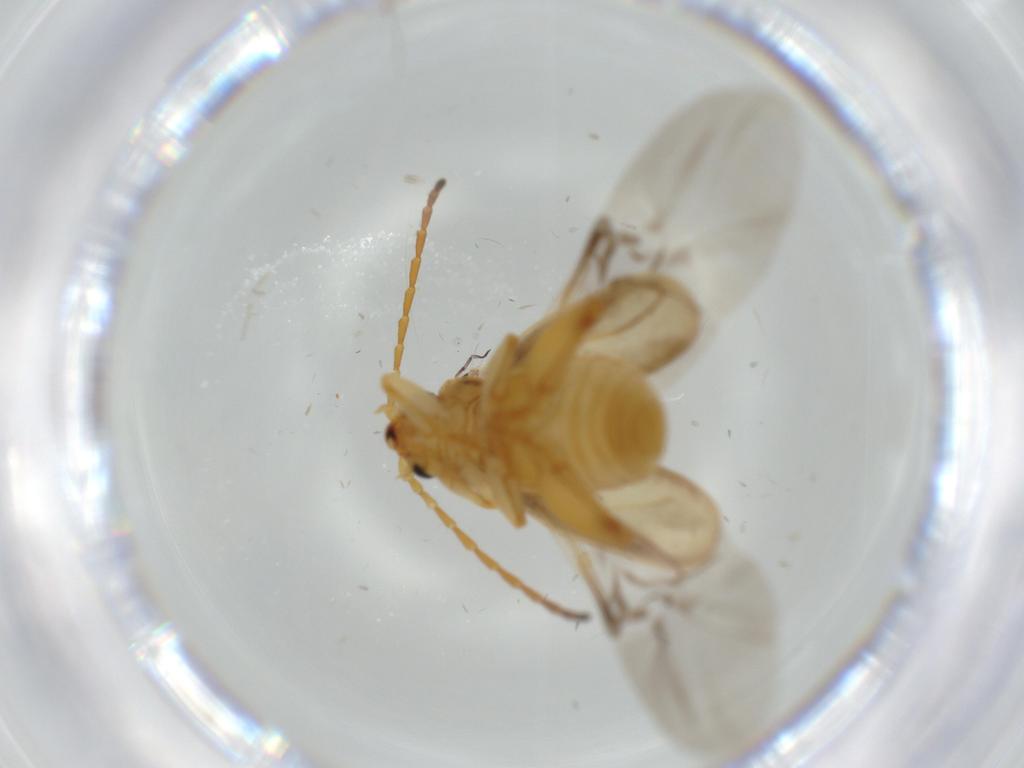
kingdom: Animalia
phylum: Arthropoda
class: Insecta
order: Coleoptera
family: Chrysomelidae
